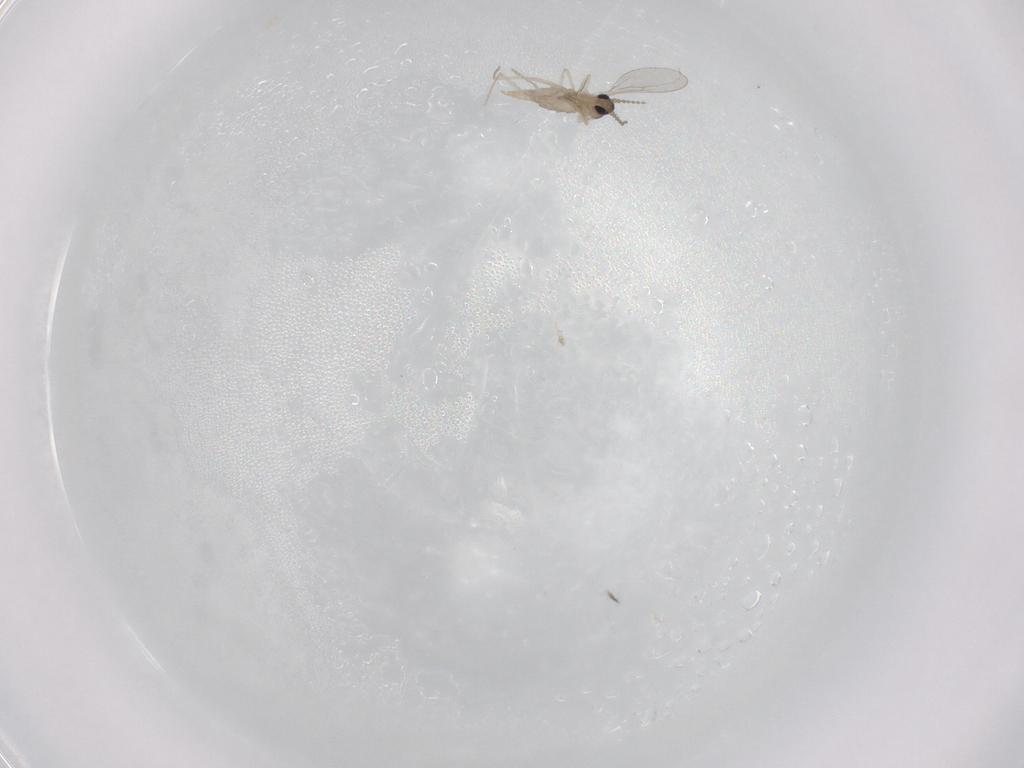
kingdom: Animalia
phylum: Arthropoda
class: Insecta
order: Diptera
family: Cecidomyiidae
